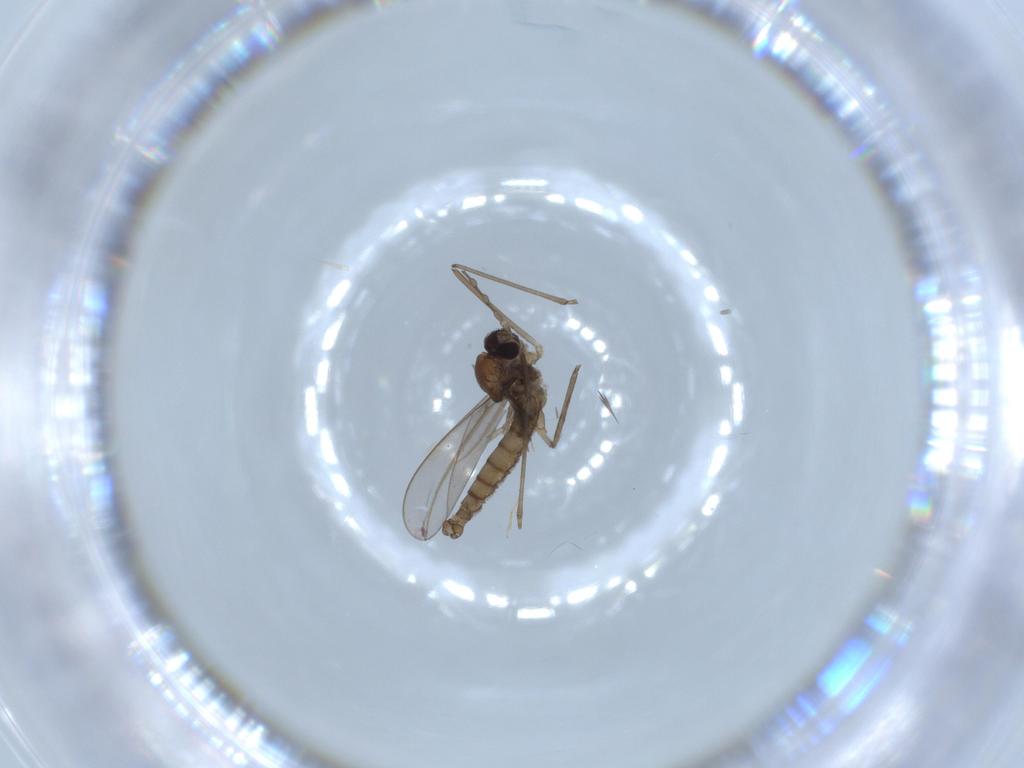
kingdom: Animalia
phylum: Arthropoda
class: Insecta
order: Diptera
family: Cecidomyiidae
